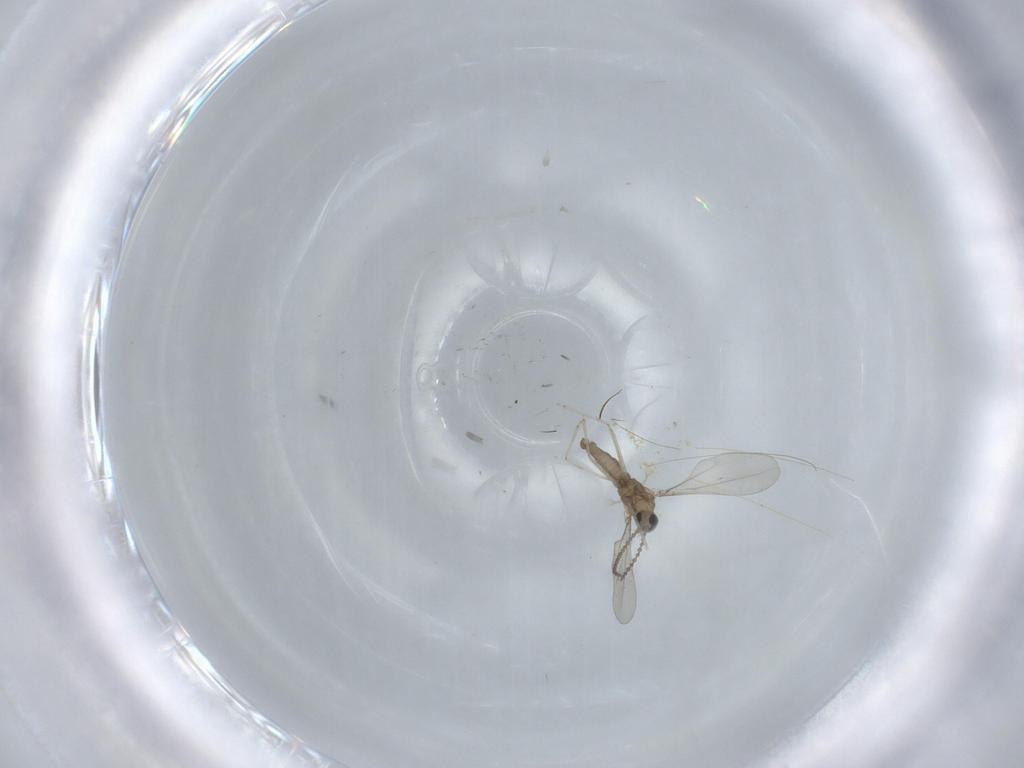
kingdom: Animalia
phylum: Arthropoda
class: Insecta
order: Diptera
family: Cecidomyiidae
